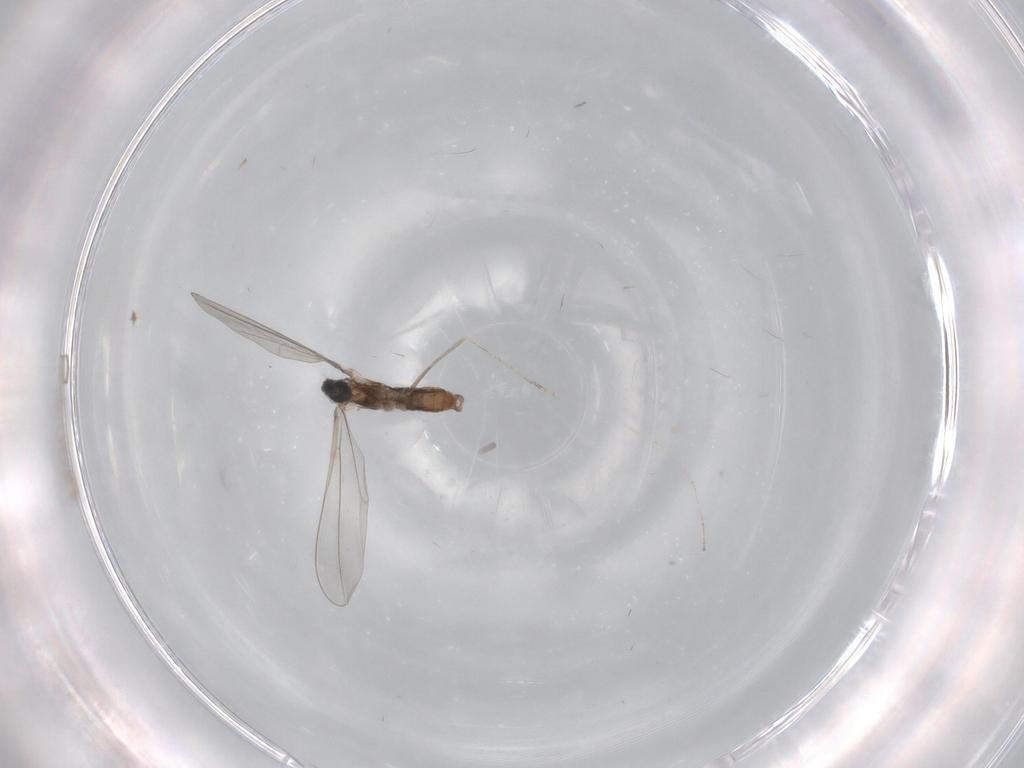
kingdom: Animalia
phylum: Arthropoda
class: Insecta
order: Diptera
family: Cecidomyiidae
